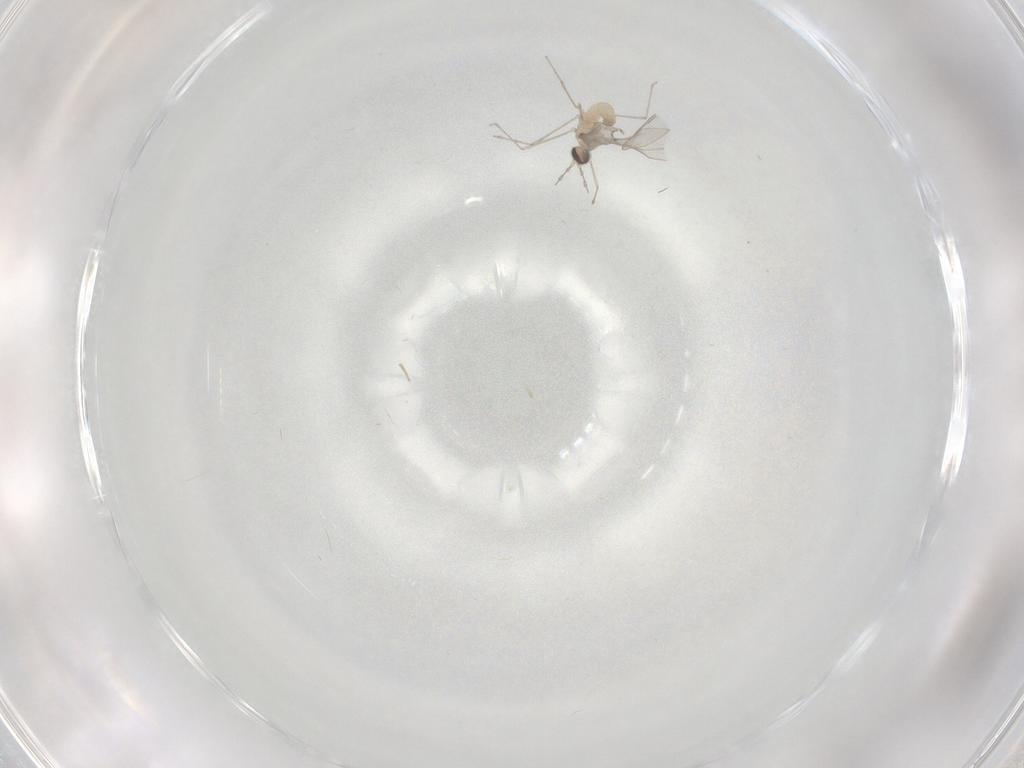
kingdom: Animalia
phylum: Arthropoda
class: Insecta
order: Diptera
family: Cecidomyiidae
